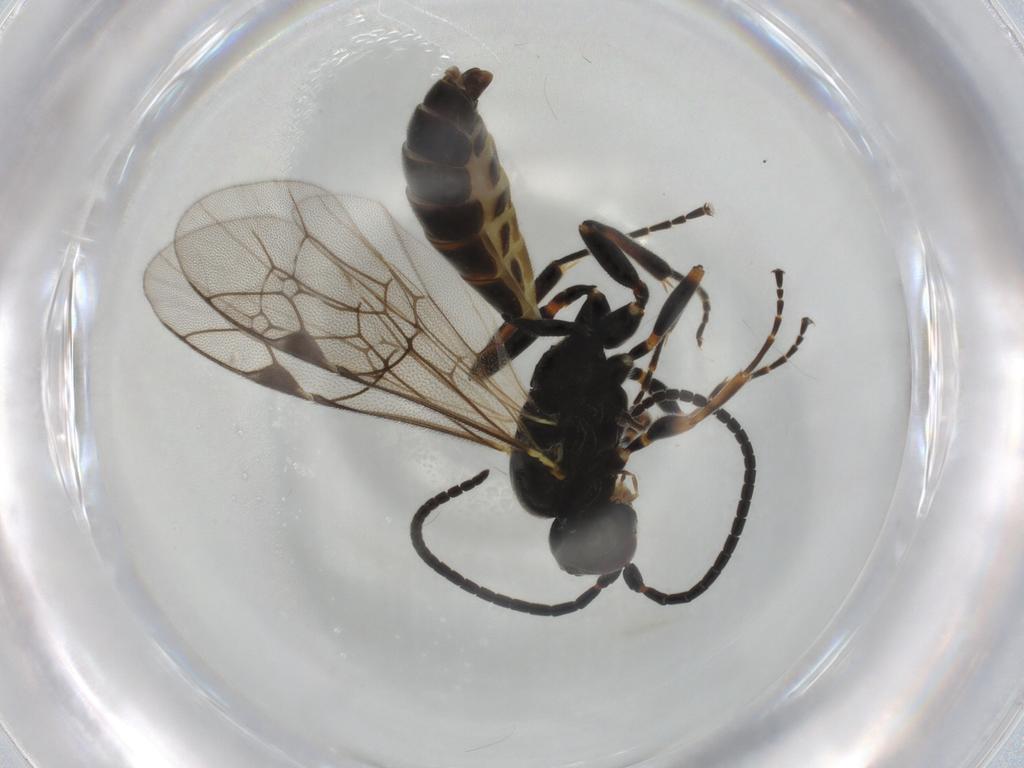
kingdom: Animalia
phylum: Arthropoda
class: Insecta
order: Hymenoptera
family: Ichneumonidae
